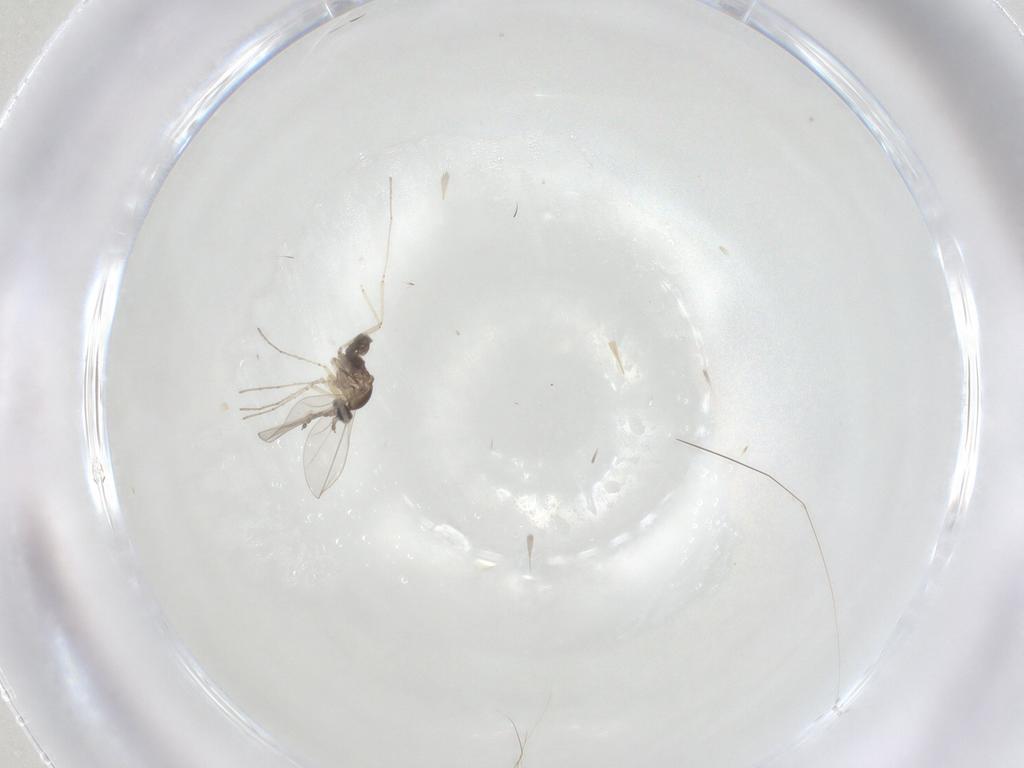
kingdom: Animalia
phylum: Arthropoda
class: Insecta
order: Diptera
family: Cecidomyiidae
